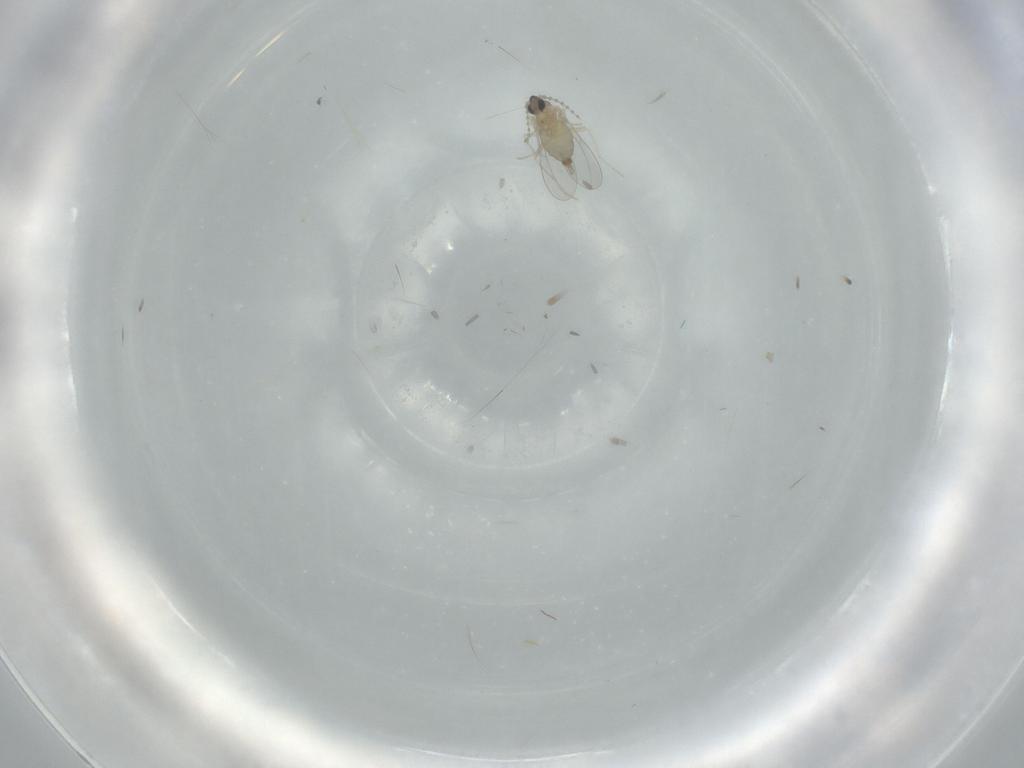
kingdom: Animalia
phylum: Arthropoda
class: Insecta
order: Diptera
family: Cecidomyiidae
